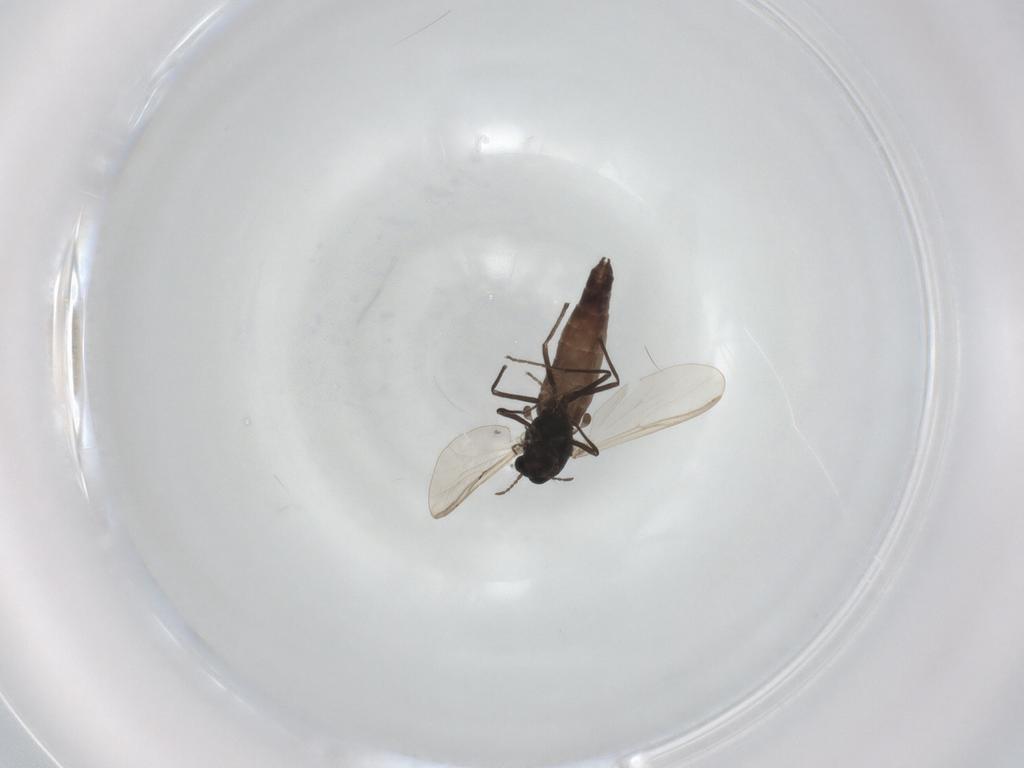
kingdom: Animalia
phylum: Arthropoda
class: Insecta
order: Diptera
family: Chironomidae
